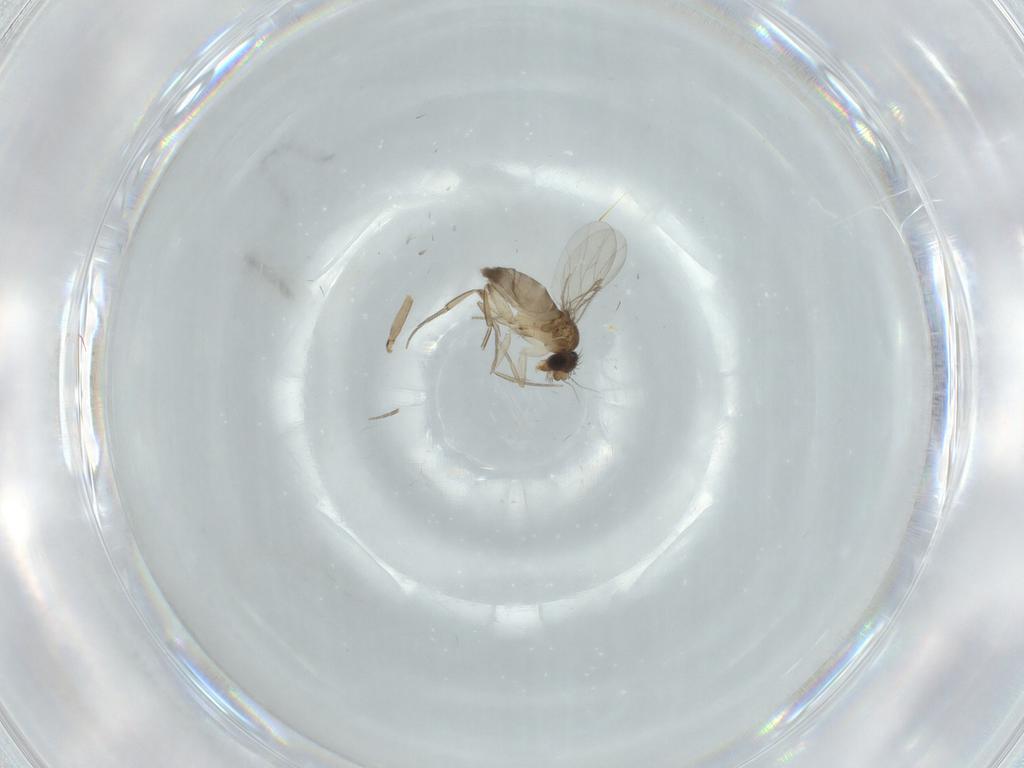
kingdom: Animalia
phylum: Arthropoda
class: Insecta
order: Diptera
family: Phoridae
